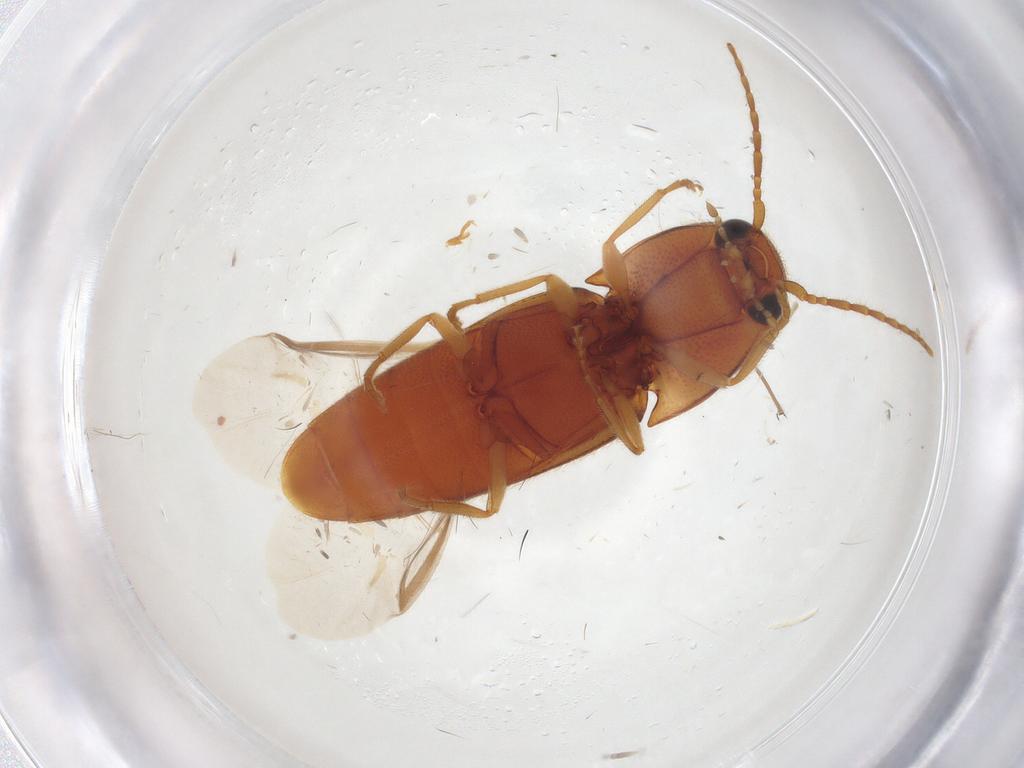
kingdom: Animalia
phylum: Arthropoda
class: Insecta
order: Coleoptera
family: Elateridae
